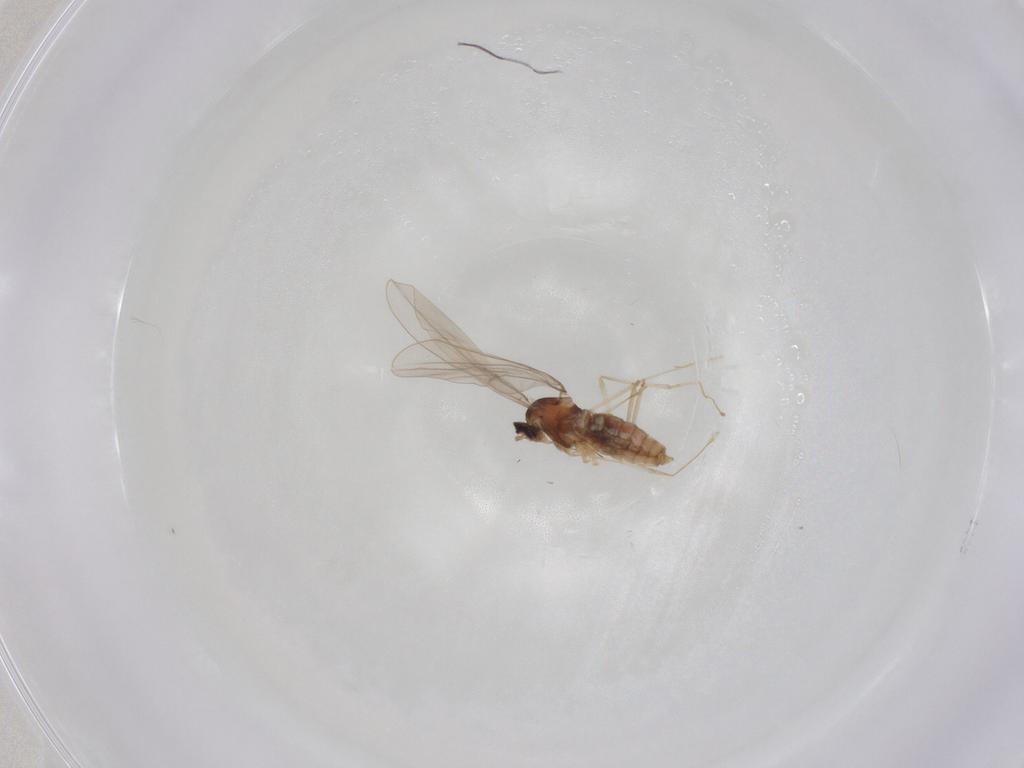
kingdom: Animalia
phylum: Arthropoda
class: Insecta
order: Diptera
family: Cecidomyiidae
